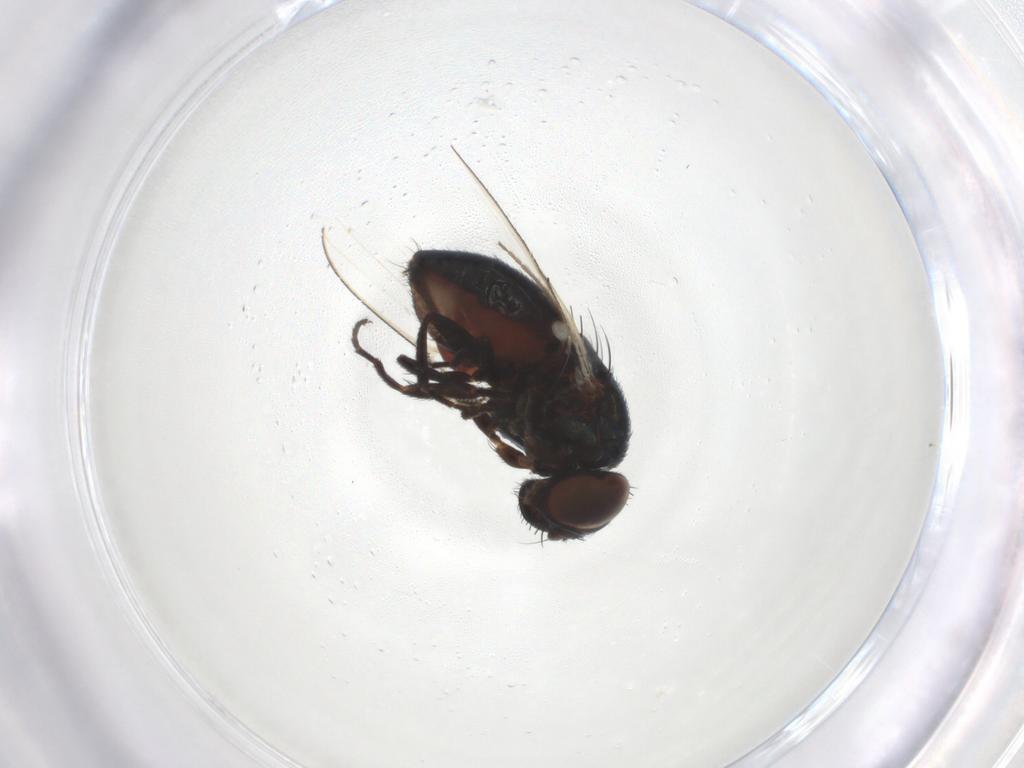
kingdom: Animalia
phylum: Arthropoda
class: Insecta
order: Diptera
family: Milichiidae
